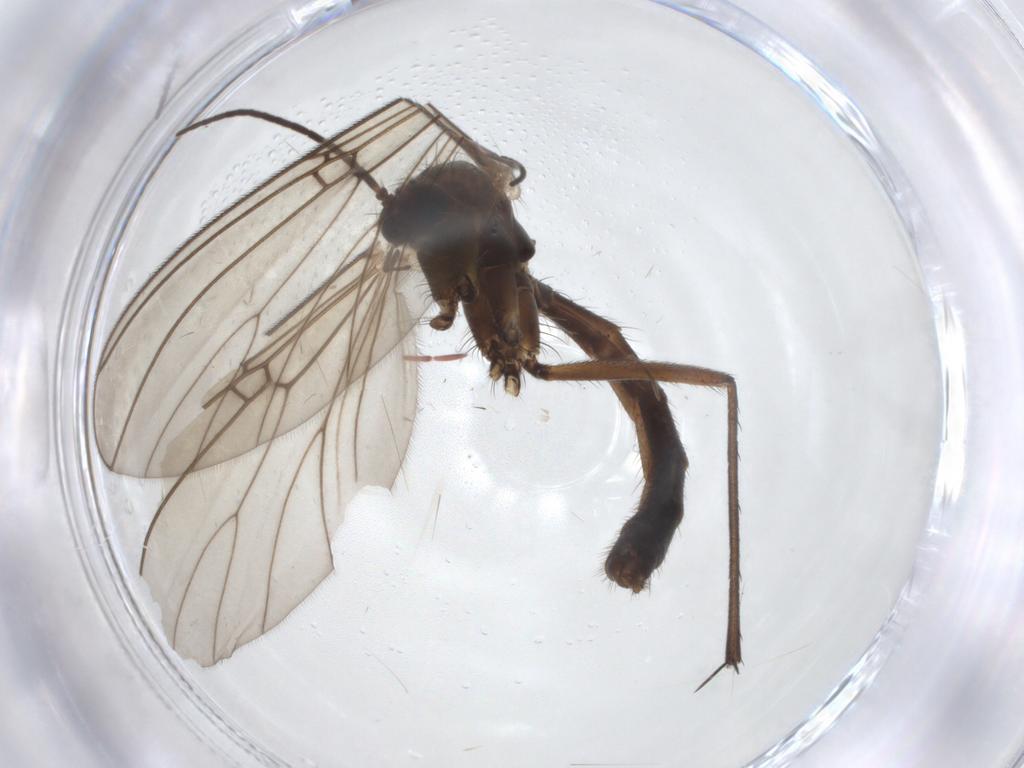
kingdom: Animalia
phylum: Arthropoda
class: Insecta
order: Diptera
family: Mycetophilidae
